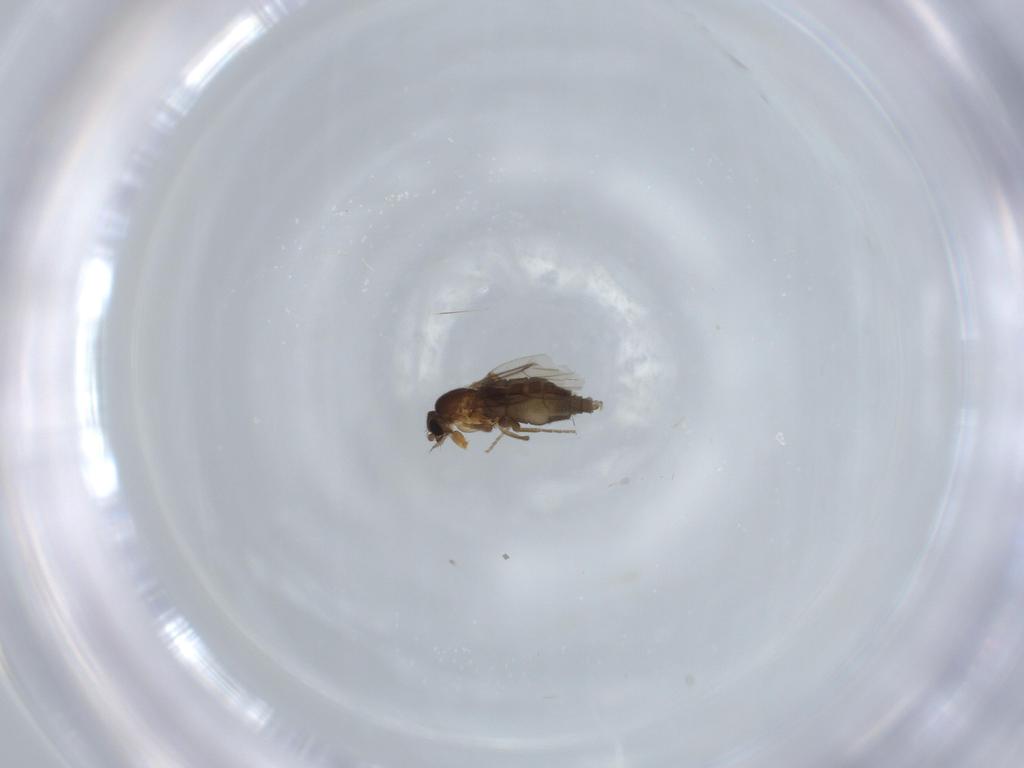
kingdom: Animalia
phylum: Arthropoda
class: Insecta
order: Diptera
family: Phoridae
